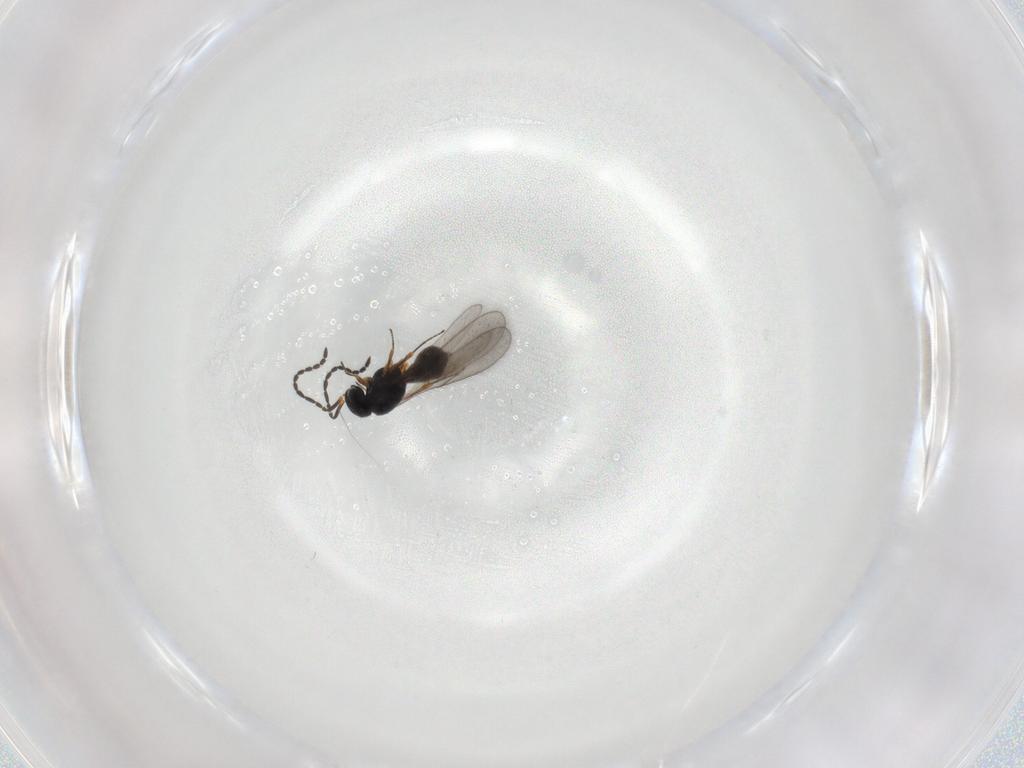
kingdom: Animalia
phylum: Arthropoda
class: Insecta
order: Hymenoptera
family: Scelionidae
